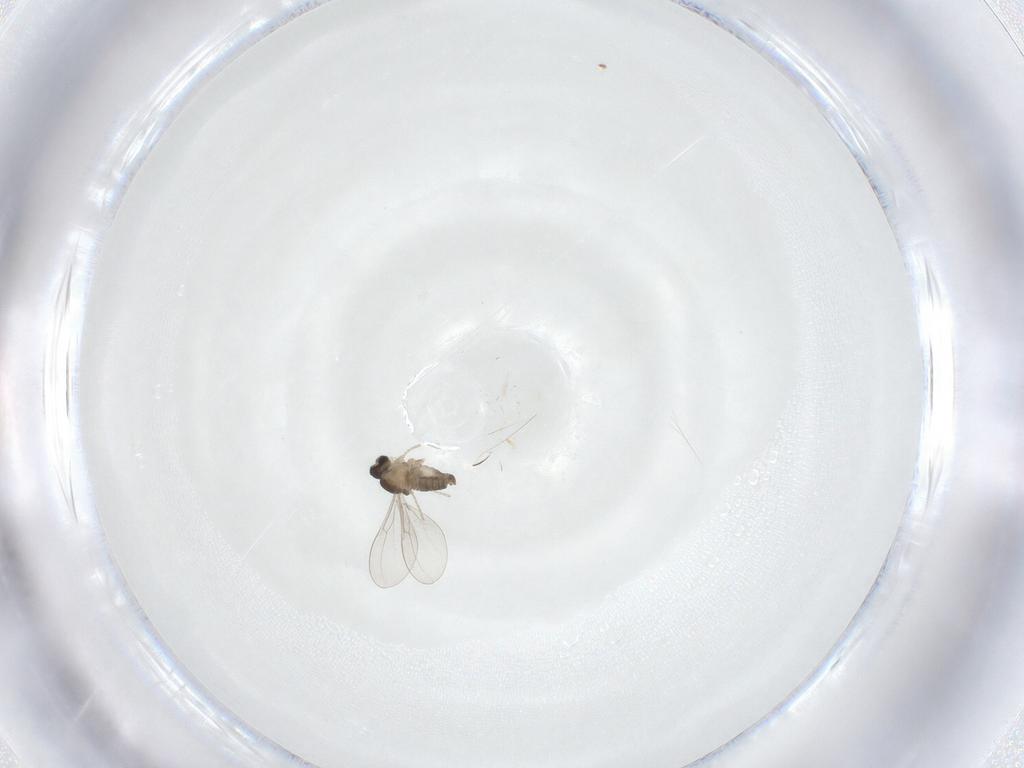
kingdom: Animalia
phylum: Arthropoda
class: Insecta
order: Diptera
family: Cecidomyiidae
